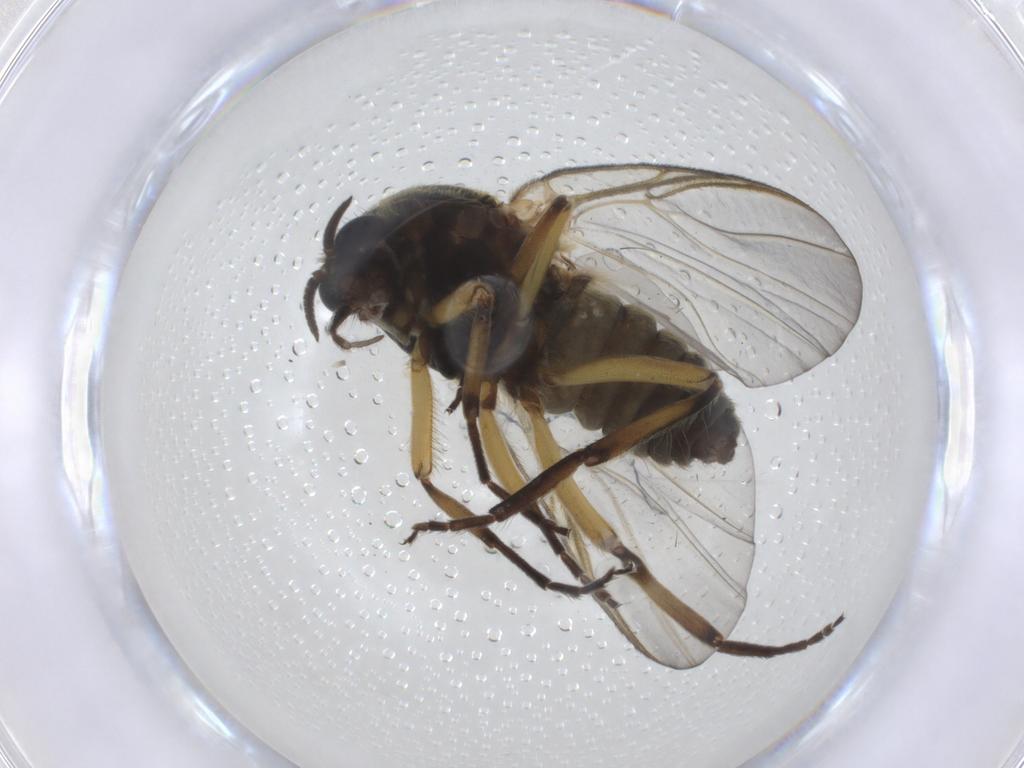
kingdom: Animalia
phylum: Arthropoda
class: Insecta
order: Diptera
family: Simuliidae
